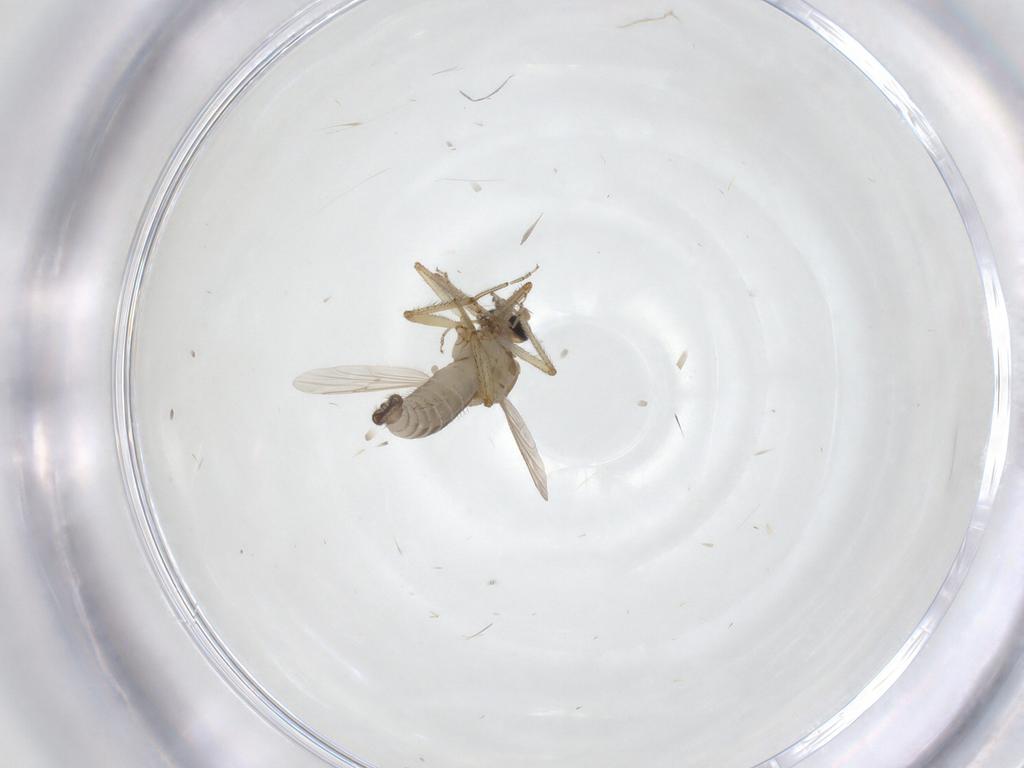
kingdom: Animalia
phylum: Arthropoda
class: Insecta
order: Diptera
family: Ceratopogonidae
